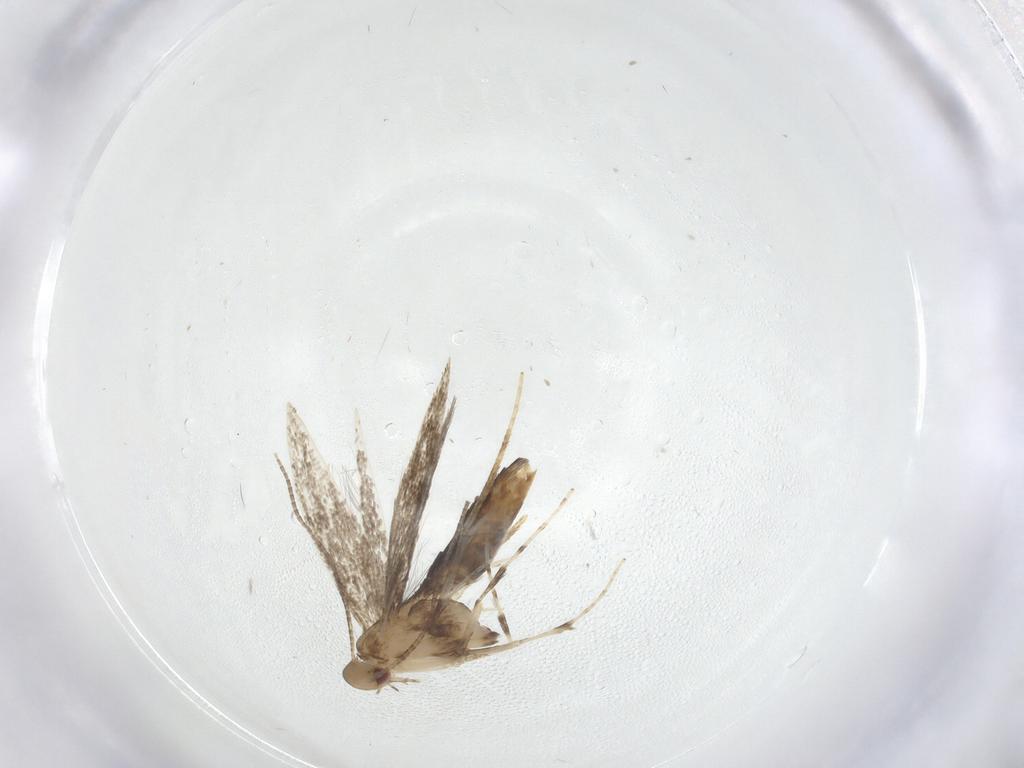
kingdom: Animalia
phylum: Arthropoda
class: Insecta
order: Lepidoptera
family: Gracillariidae
